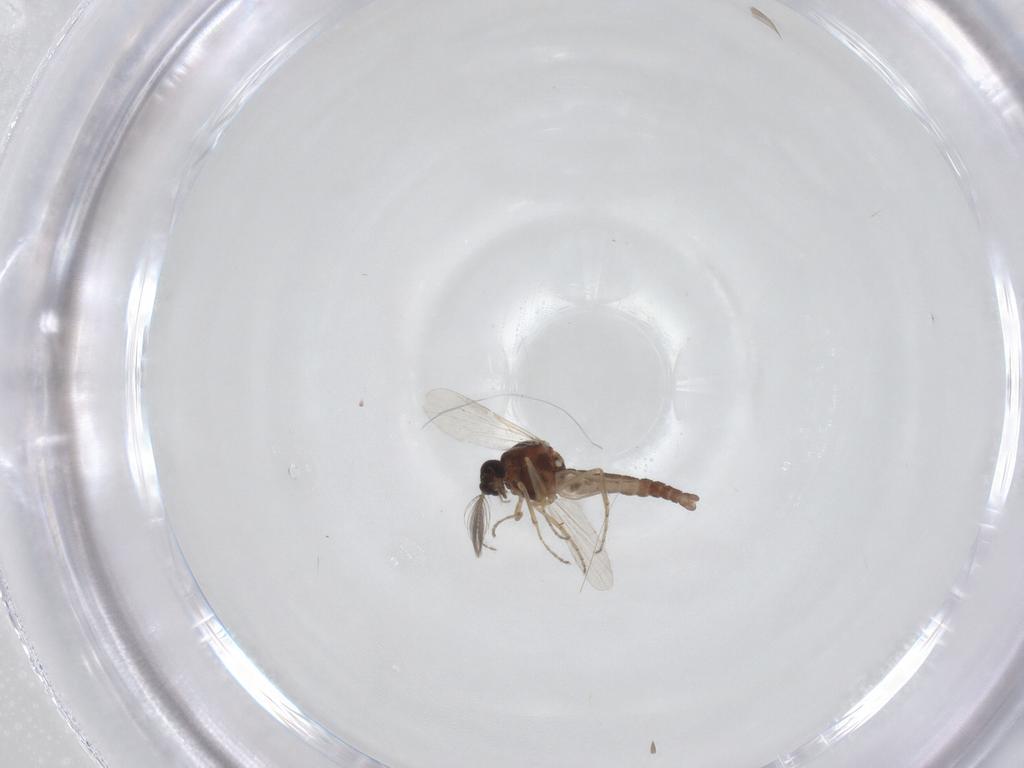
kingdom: Animalia
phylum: Arthropoda
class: Insecta
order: Diptera
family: Ceratopogonidae
